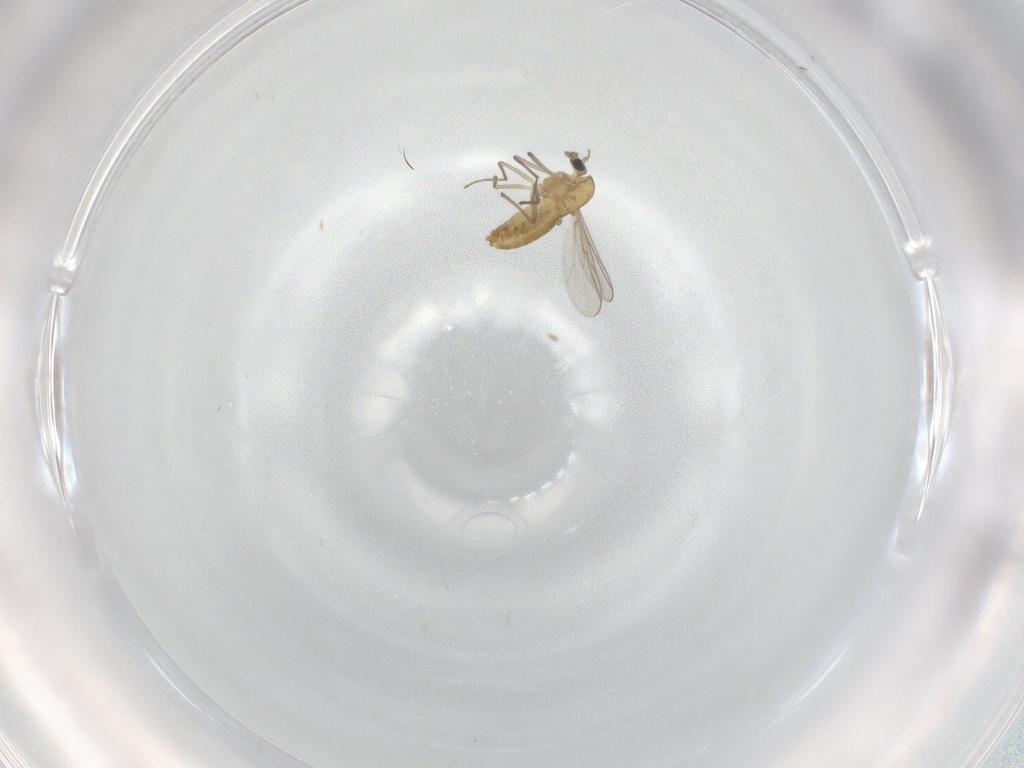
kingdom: Animalia
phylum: Arthropoda
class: Insecta
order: Diptera
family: Chironomidae
